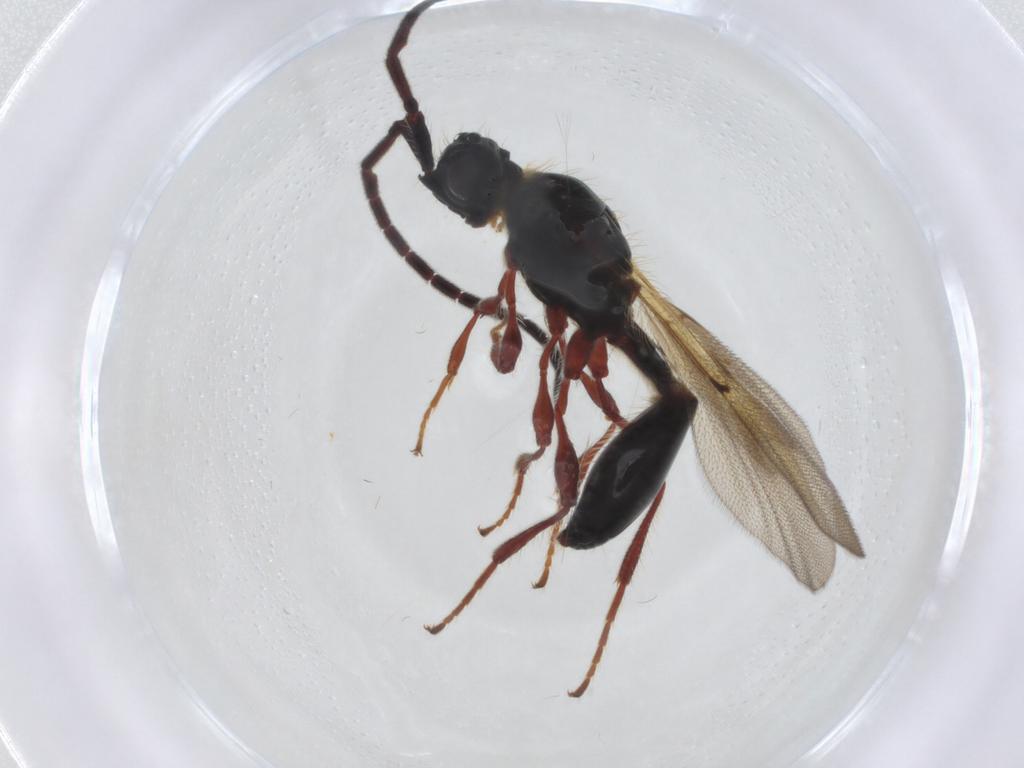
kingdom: Animalia
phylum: Arthropoda
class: Insecta
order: Hymenoptera
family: Diapriidae
